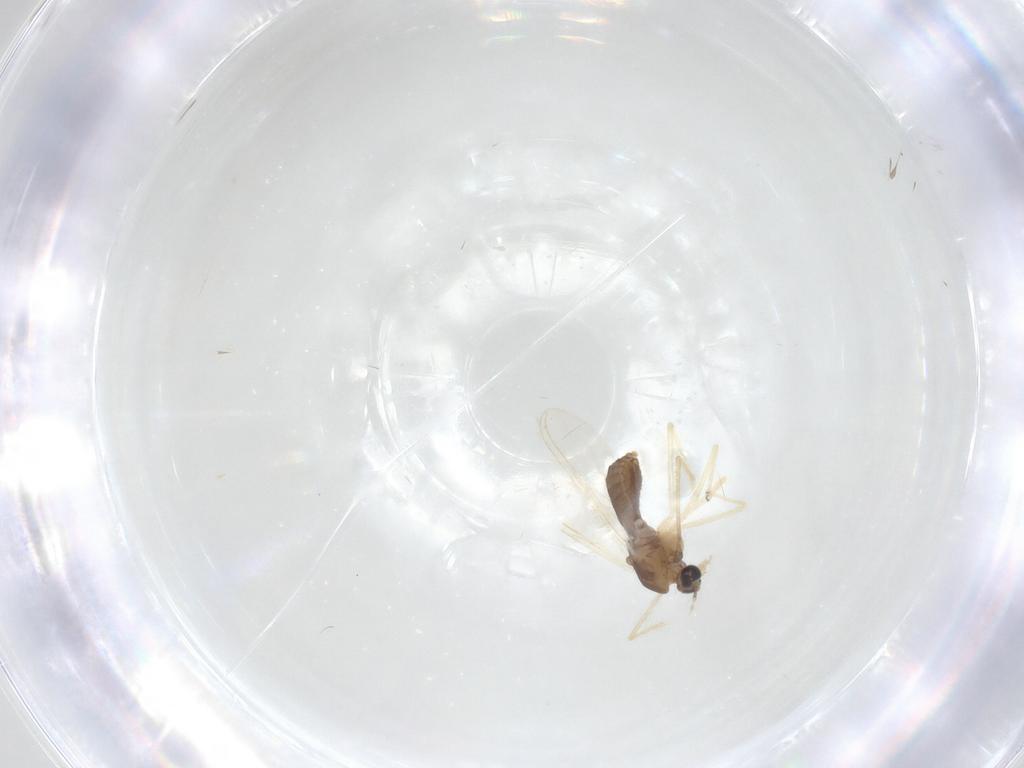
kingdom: Animalia
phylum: Arthropoda
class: Insecta
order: Diptera
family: Chironomidae
